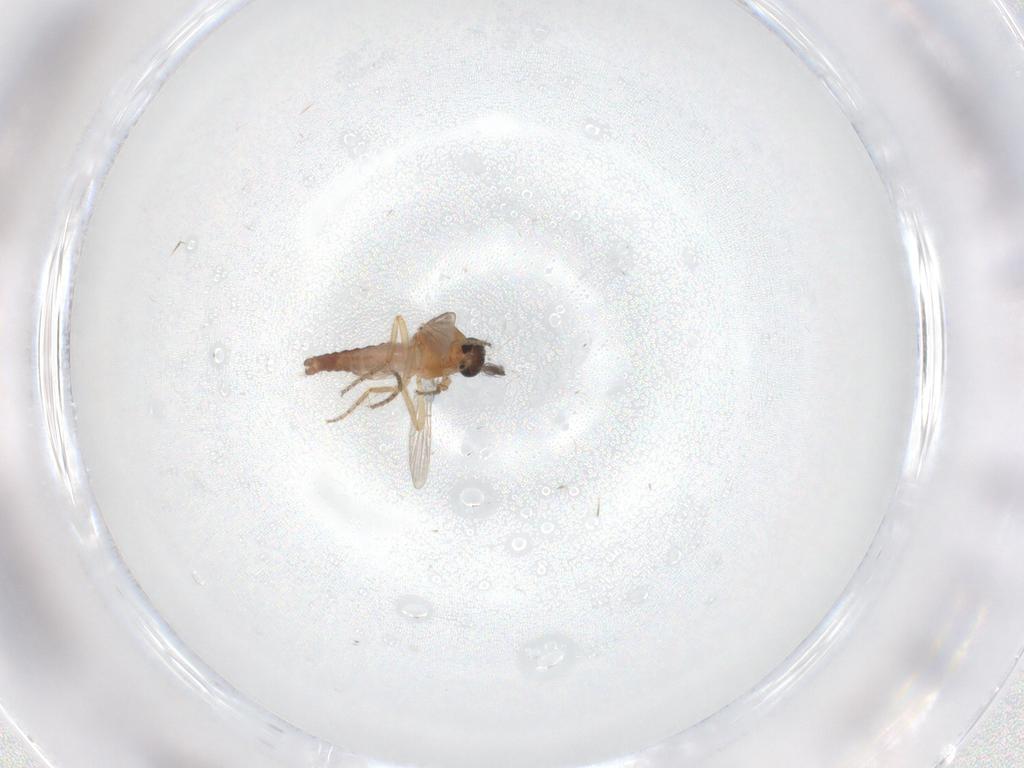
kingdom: Animalia
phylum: Arthropoda
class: Insecta
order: Diptera
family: Ceratopogonidae
